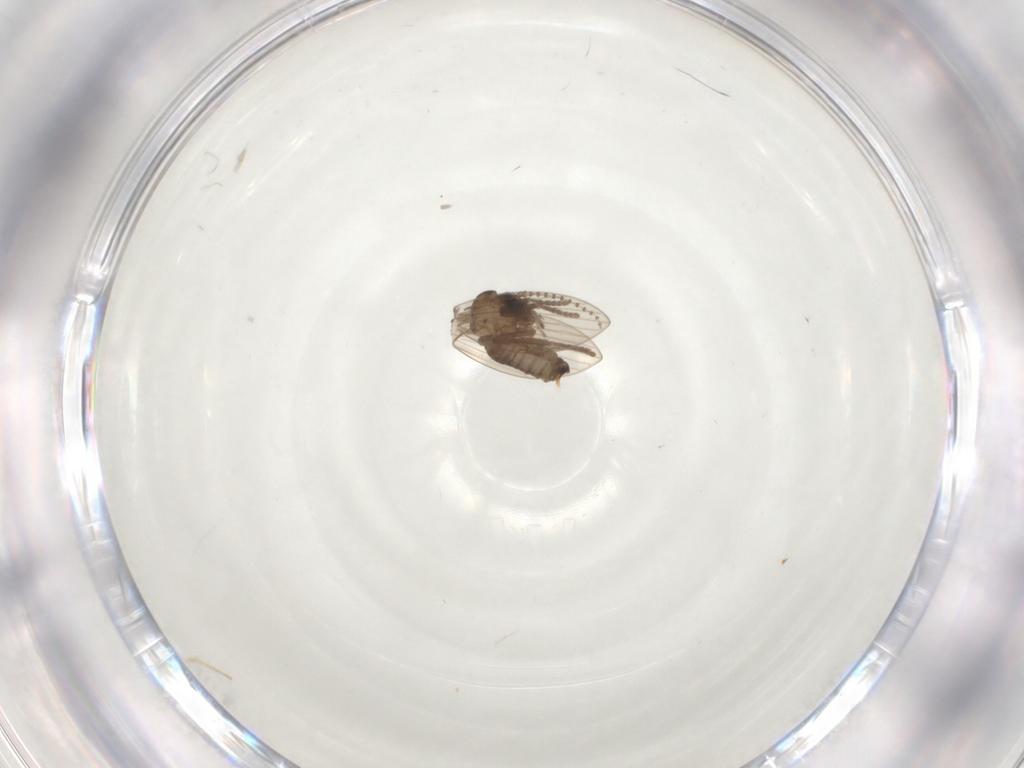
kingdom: Animalia
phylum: Arthropoda
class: Insecta
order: Diptera
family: Psychodidae
